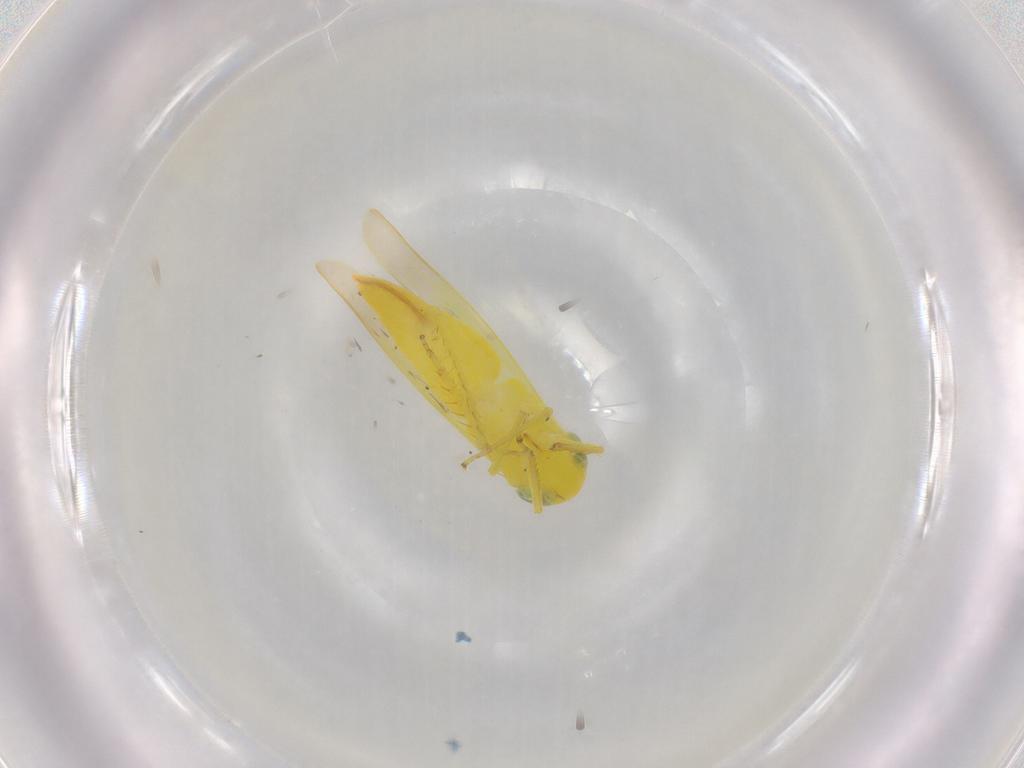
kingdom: Animalia
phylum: Arthropoda
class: Insecta
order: Hemiptera
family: Cicadellidae
